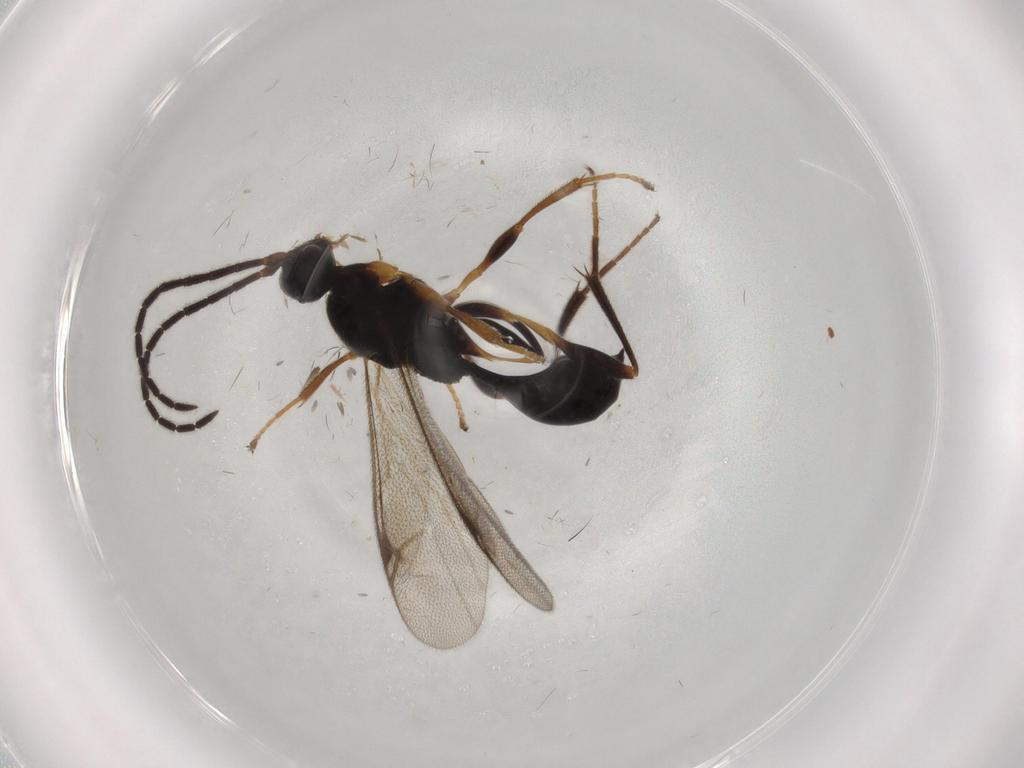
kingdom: Animalia
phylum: Arthropoda
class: Insecta
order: Hymenoptera
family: Proctotrupidae
